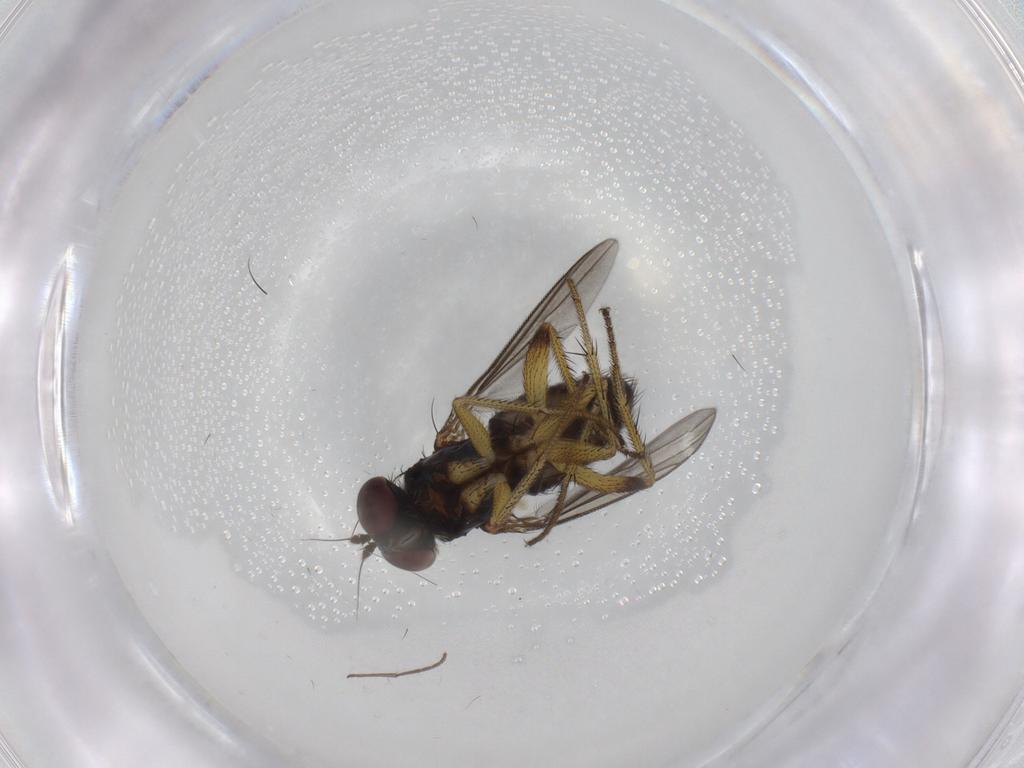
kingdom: Animalia
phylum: Arthropoda
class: Insecta
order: Diptera
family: Dolichopodidae
